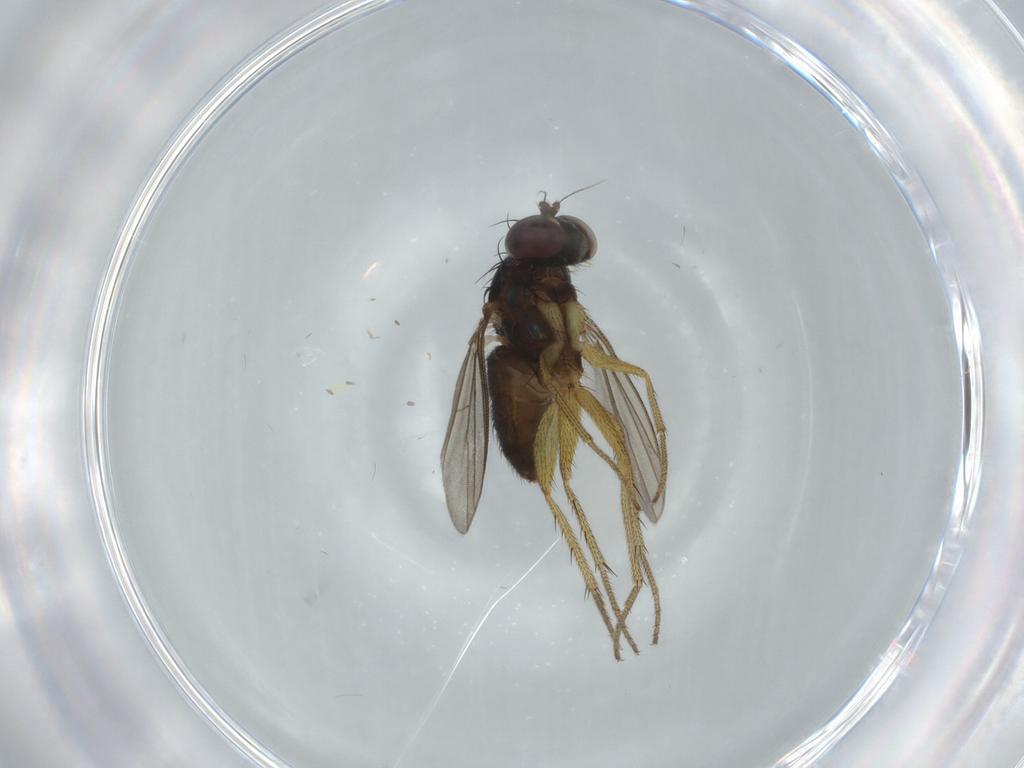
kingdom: Animalia
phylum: Arthropoda
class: Insecta
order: Diptera
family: Dolichopodidae
